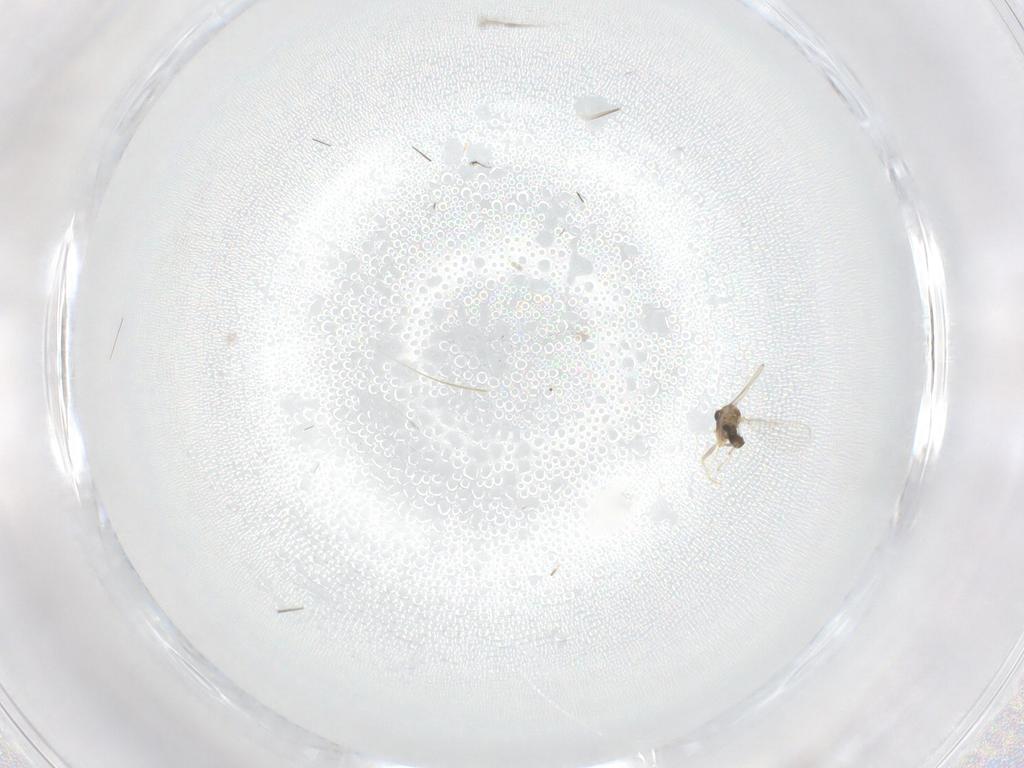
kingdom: Animalia
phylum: Arthropoda
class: Insecta
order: Diptera
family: Chironomidae
